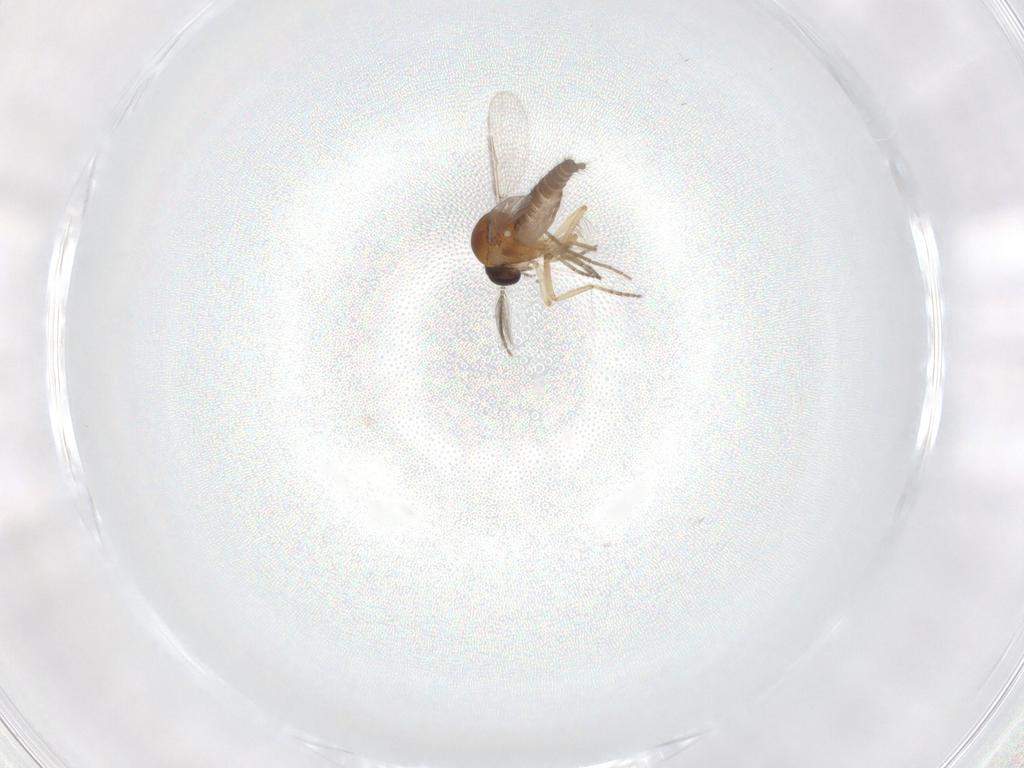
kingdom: Animalia
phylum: Arthropoda
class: Insecta
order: Diptera
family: Ceratopogonidae
